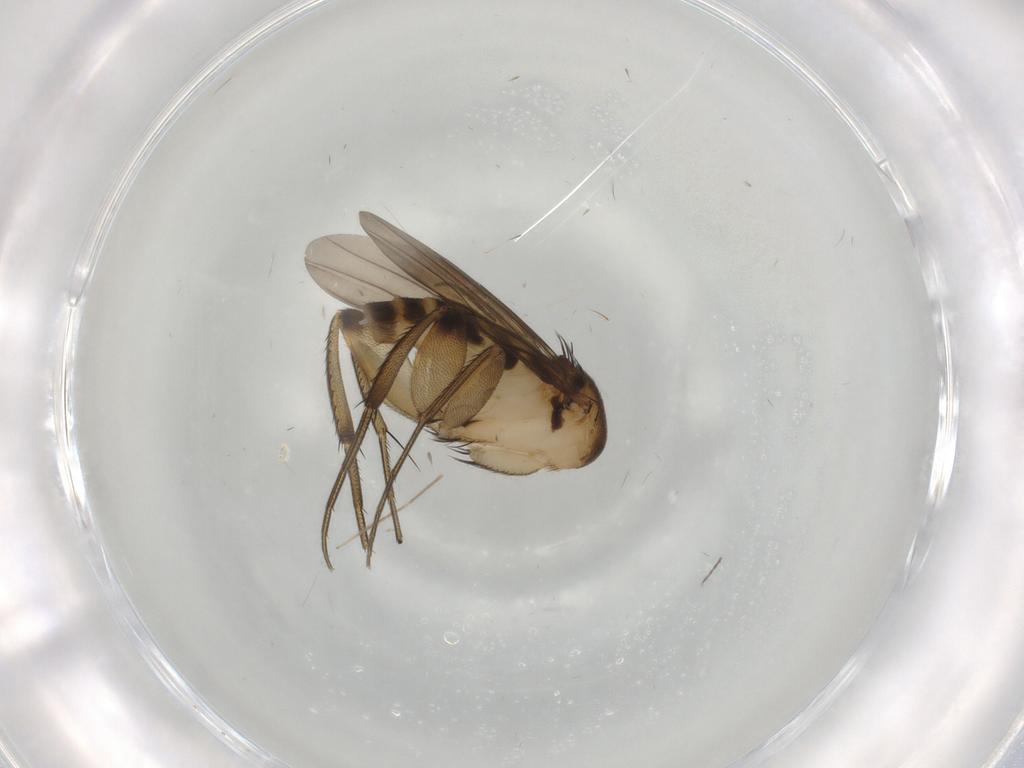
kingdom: Animalia
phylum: Arthropoda
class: Insecta
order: Diptera
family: Phoridae
